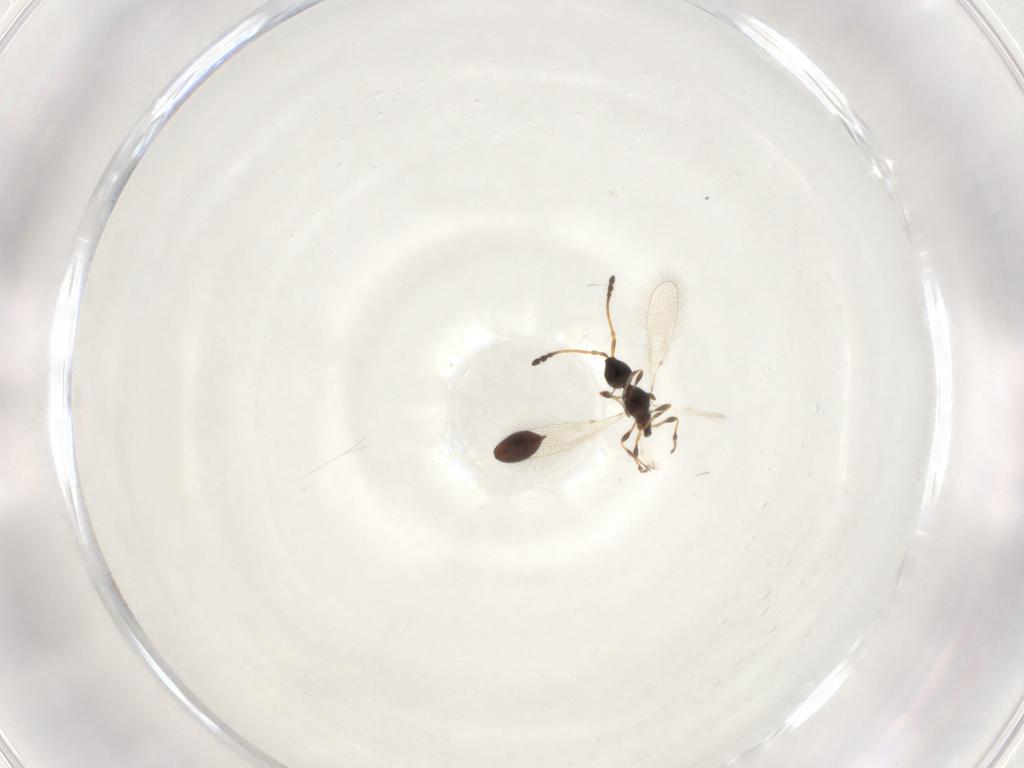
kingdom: Animalia
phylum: Arthropoda
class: Insecta
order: Hymenoptera
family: Diapriidae
